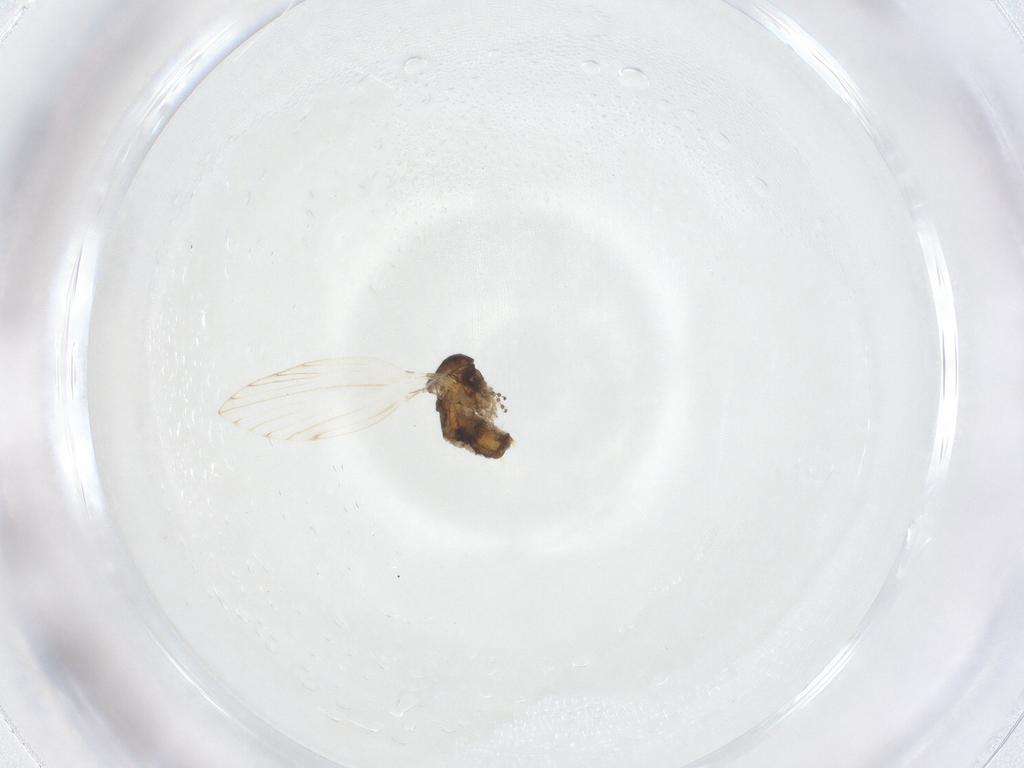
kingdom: Animalia
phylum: Arthropoda
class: Insecta
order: Diptera
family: Psychodidae
